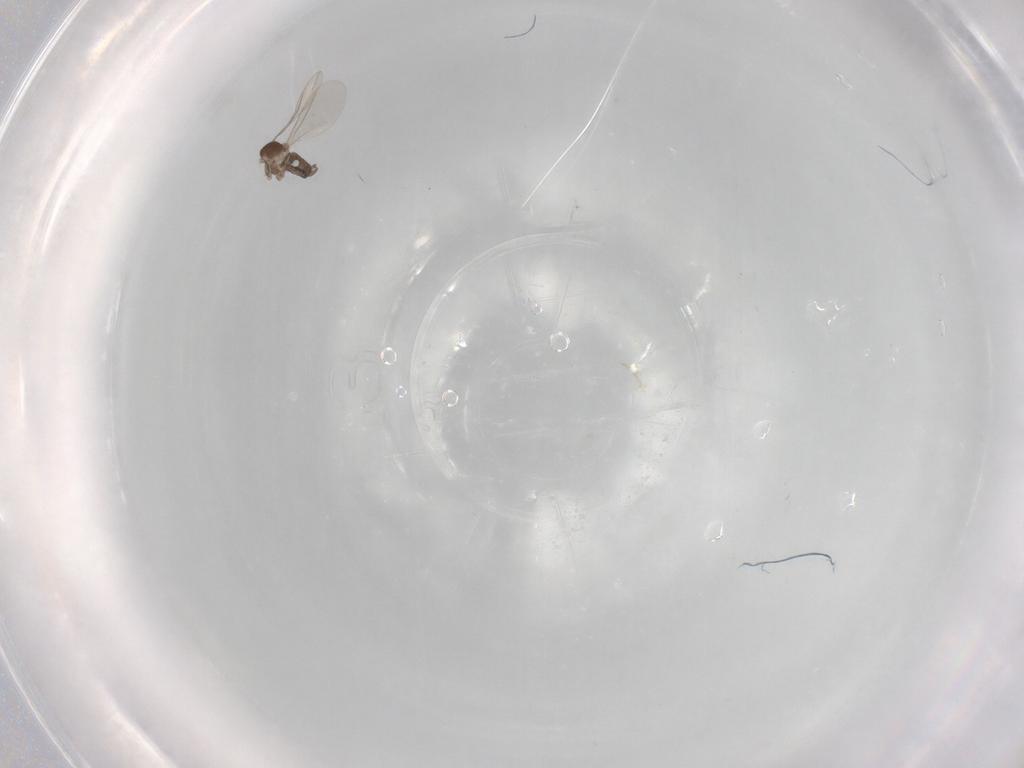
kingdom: Animalia
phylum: Arthropoda
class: Insecta
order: Diptera
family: Cecidomyiidae
